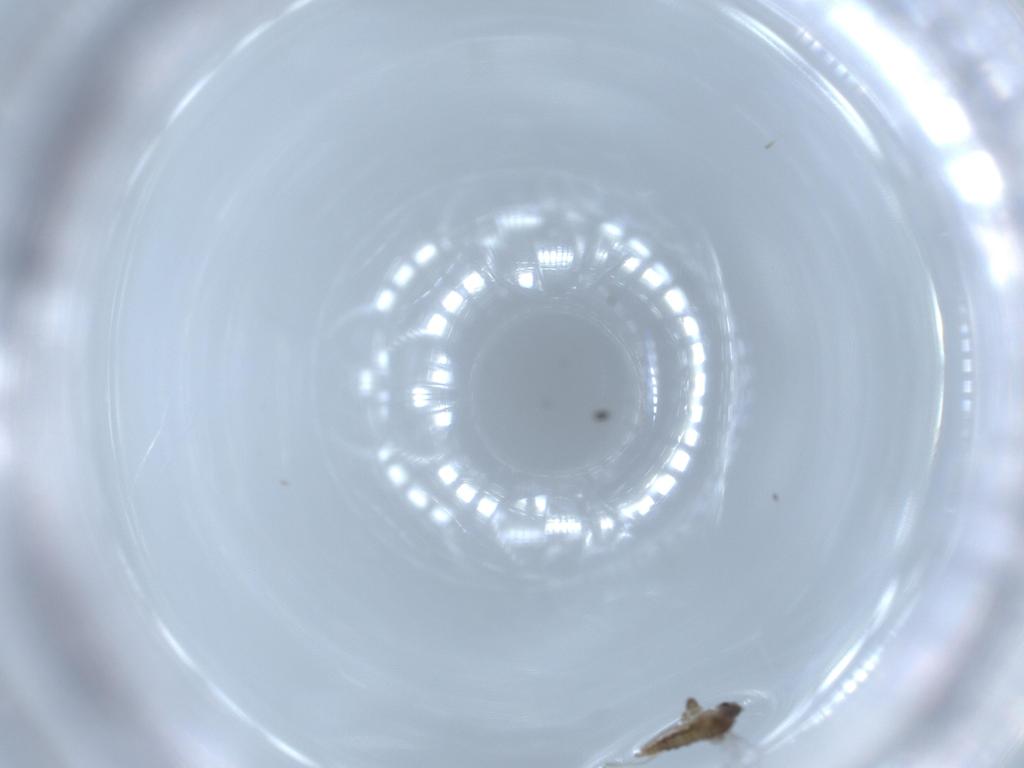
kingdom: Animalia
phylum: Arthropoda
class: Insecta
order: Diptera
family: Cecidomyiidae
